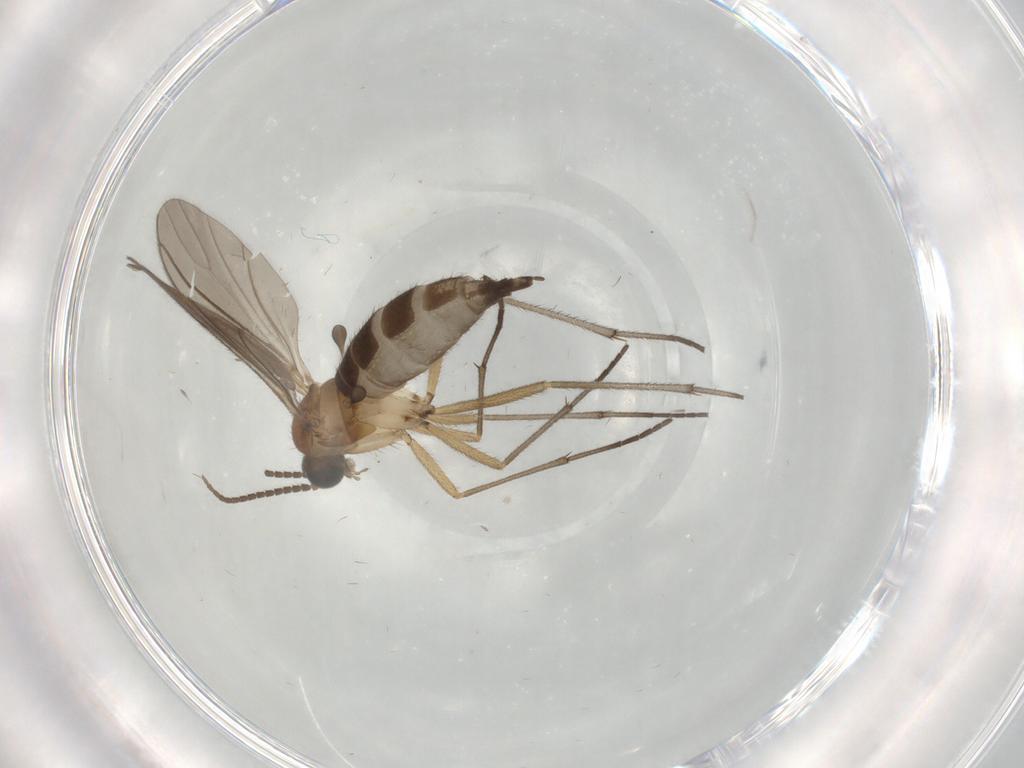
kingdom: Animalia
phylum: Arthropoda
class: Insecta
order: Diptera
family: Sciaridae
